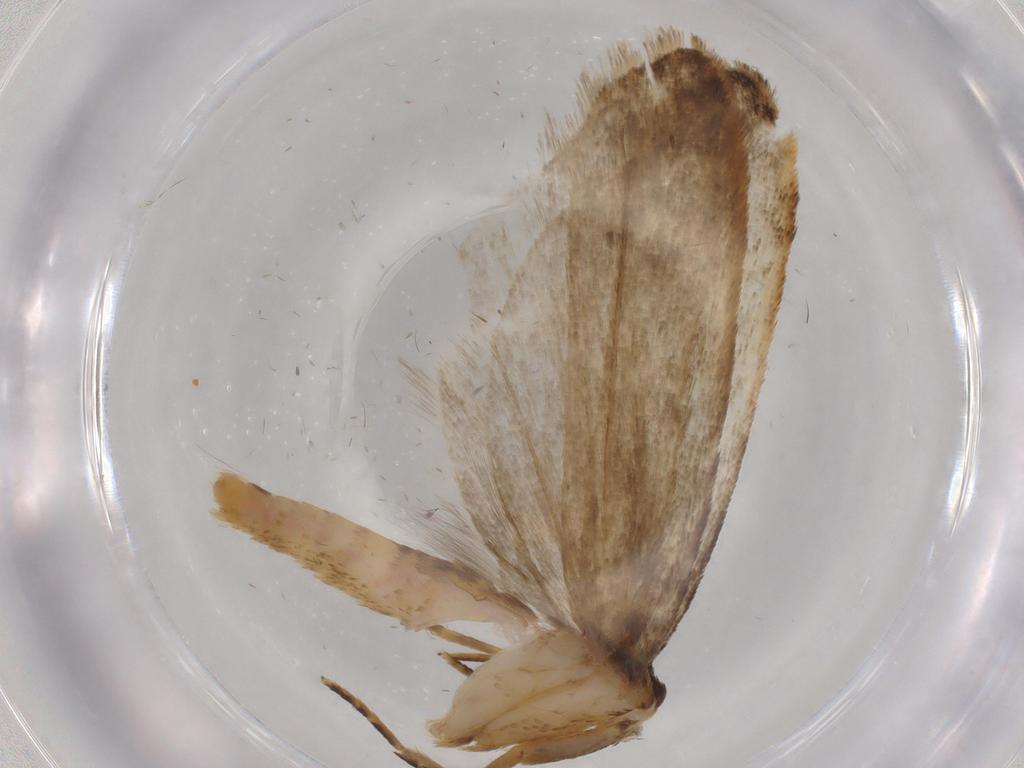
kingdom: Animalia
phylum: Arthropoda
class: Insecta
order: Lepidoptera
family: Autostichidae
